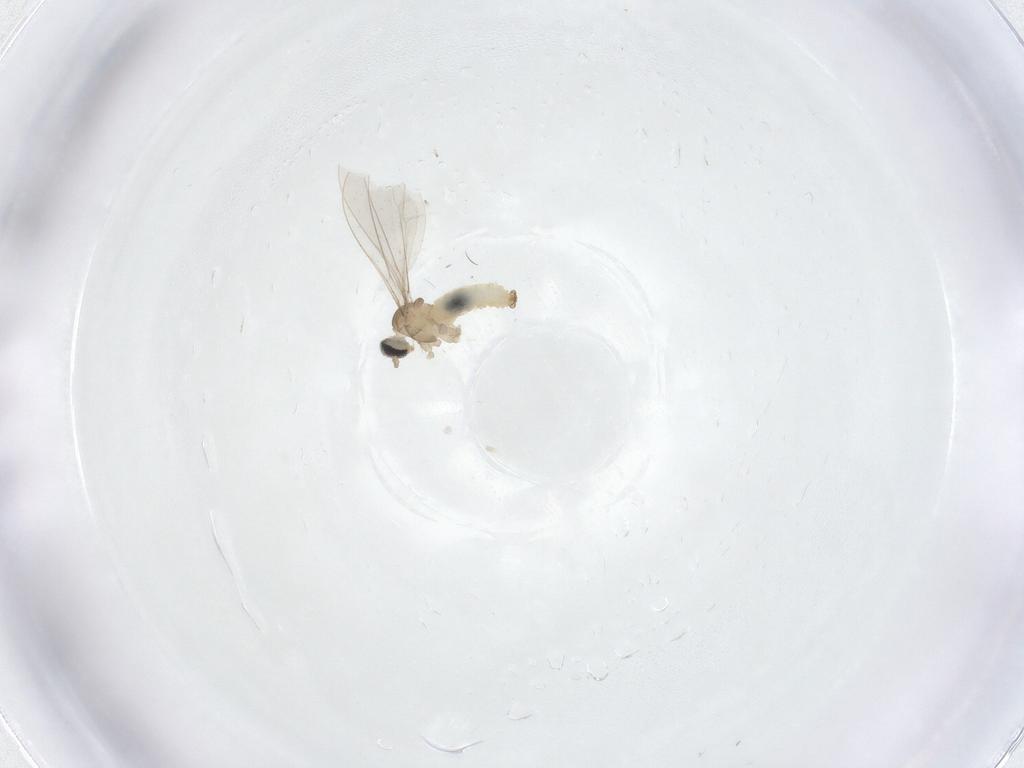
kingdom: Animalia
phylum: Arthropoda
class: Insecta
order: Diptera
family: Chironomidae
